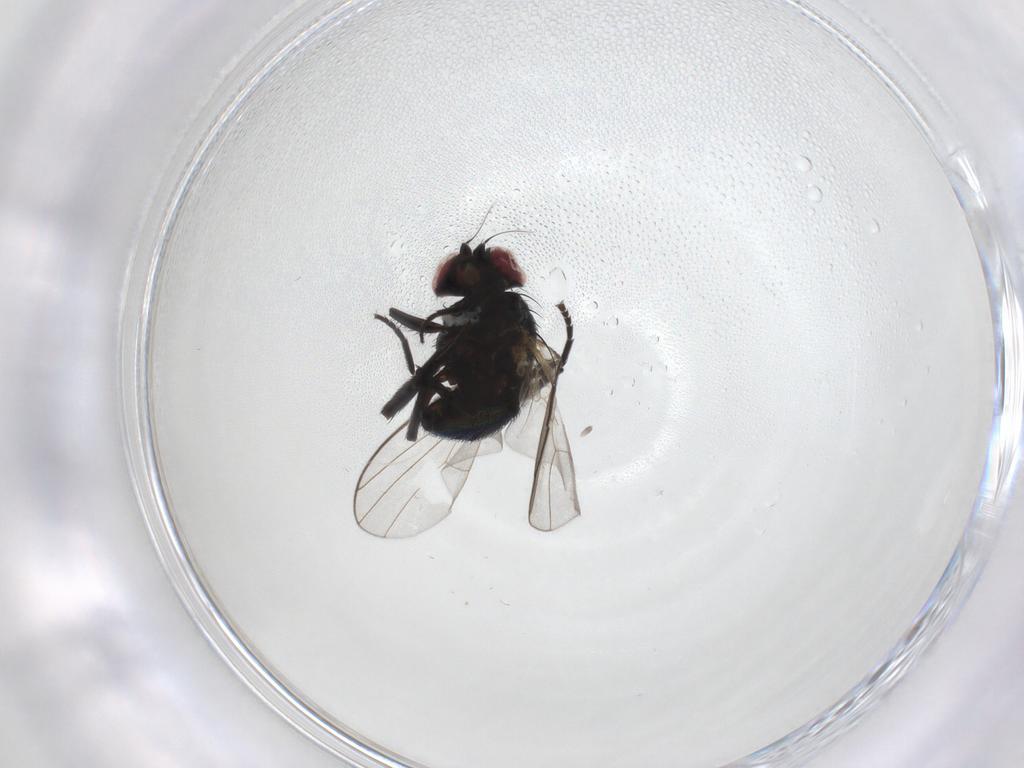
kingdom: Animalia
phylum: Arthropoda
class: Insecta
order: Diptera
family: Agromyzidae
